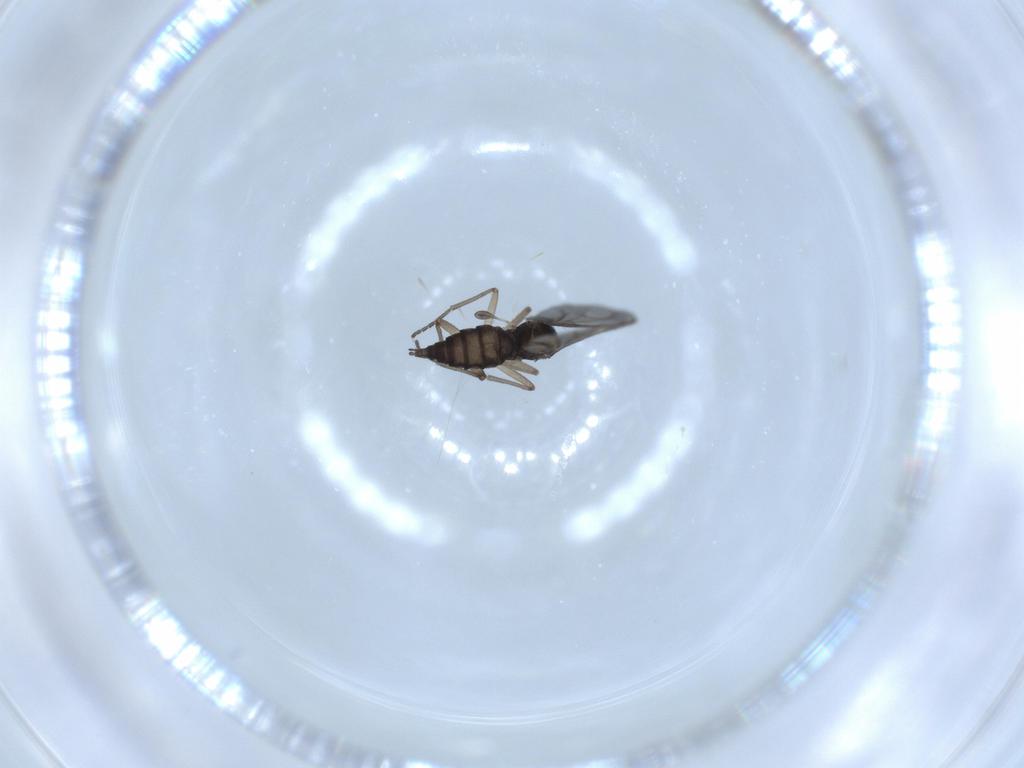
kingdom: Animalia
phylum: Arthropoda
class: Insecta
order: Diptera
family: Sciaridae
